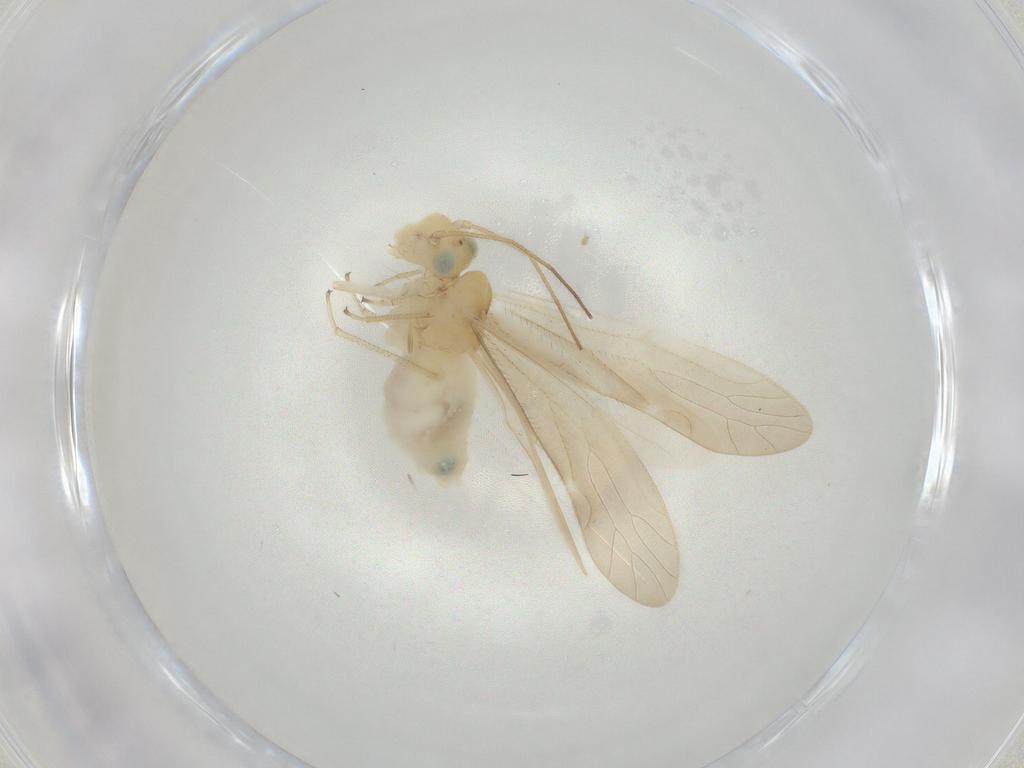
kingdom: Animalia
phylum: Arthropoda
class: Insecta
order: Psocodea
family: Caeciliusidae
